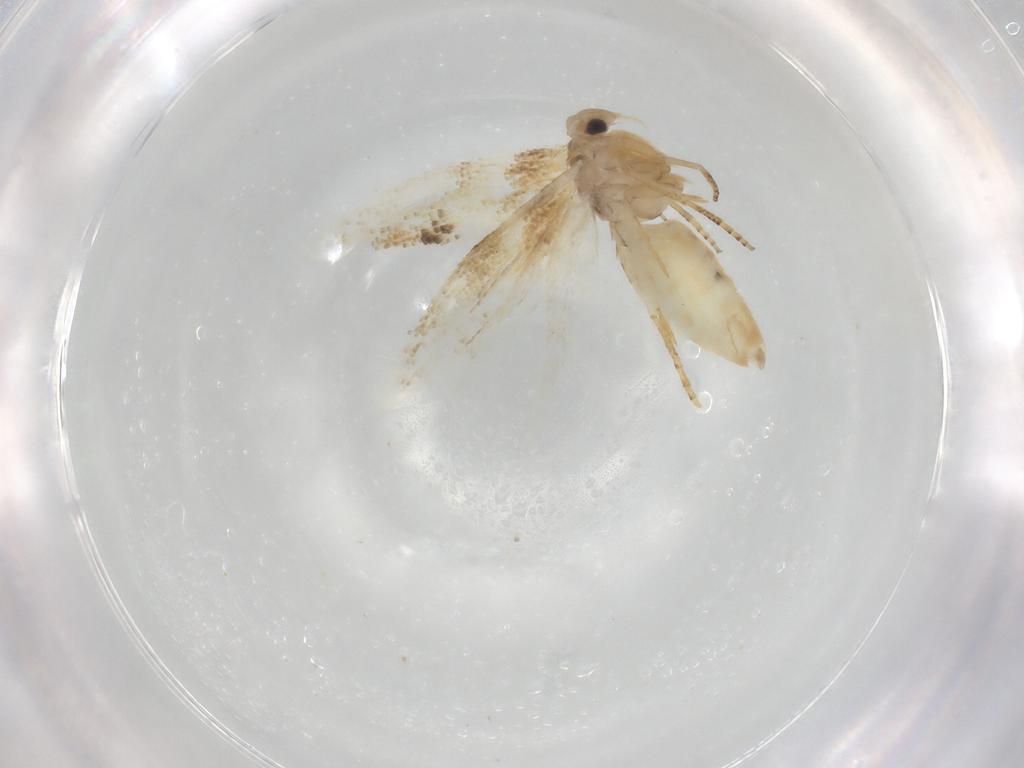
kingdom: Animalia
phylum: Arthropoda
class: Insecta
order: Lepidoptera
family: Bucculatricidae
